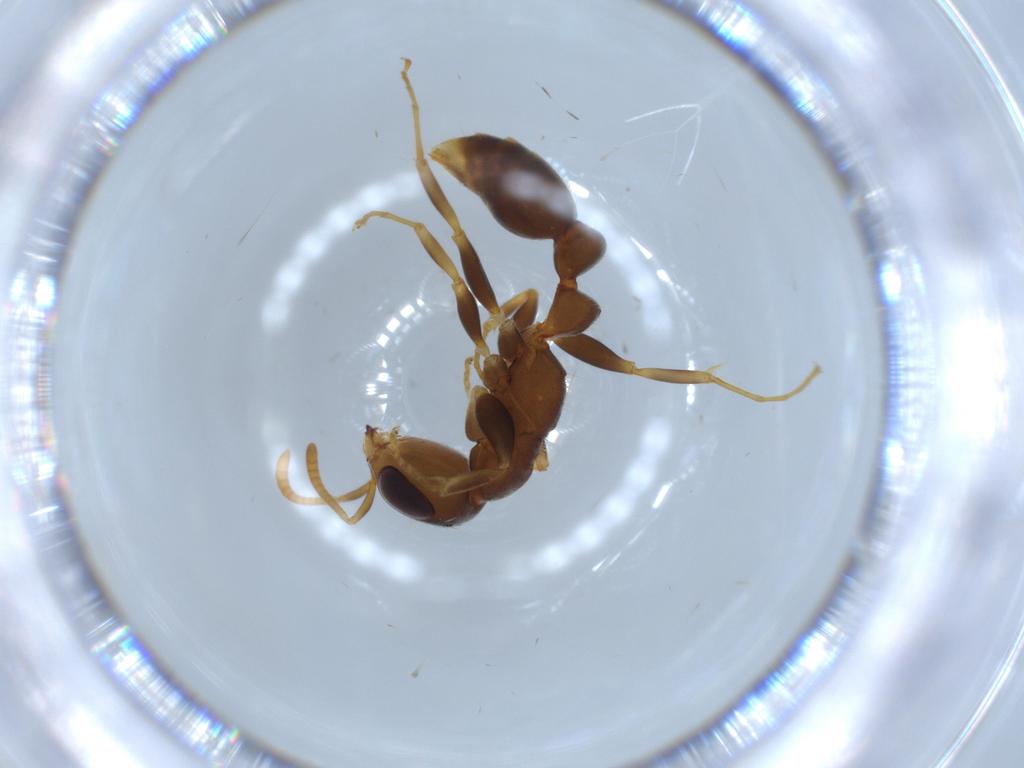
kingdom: Animalia
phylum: Arthropoda
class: Insecta
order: Hymenoptera
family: Formicidae
